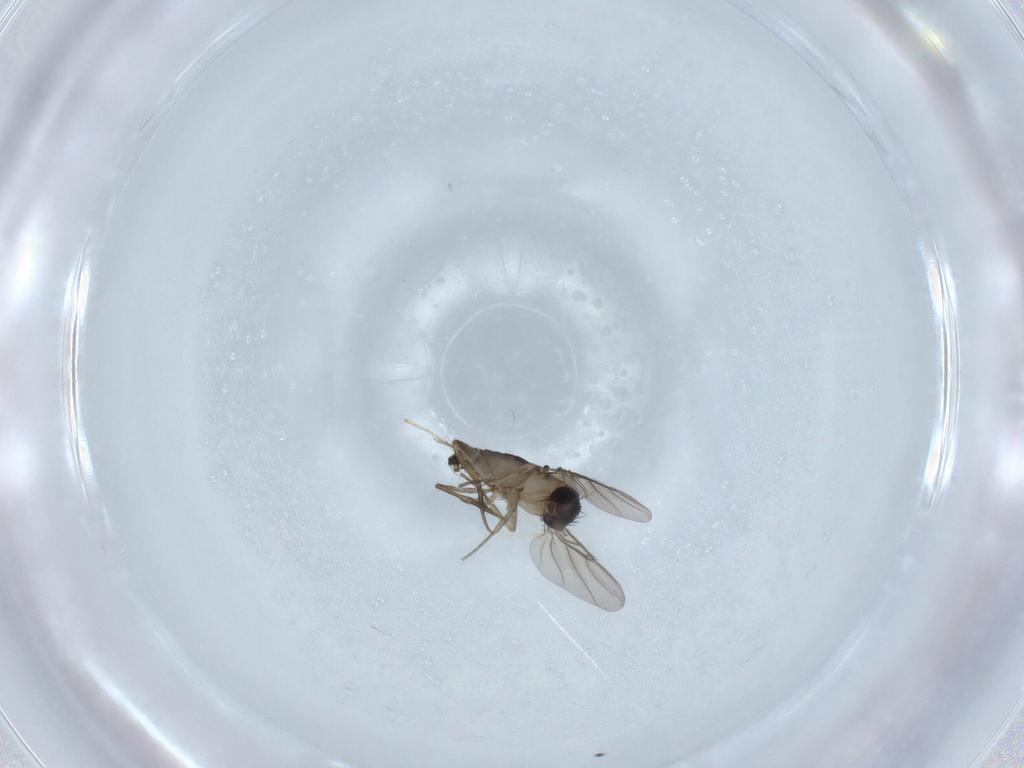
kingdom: Animalia
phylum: Arthropoda
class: Insecta
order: Diptera
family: Phoridae
